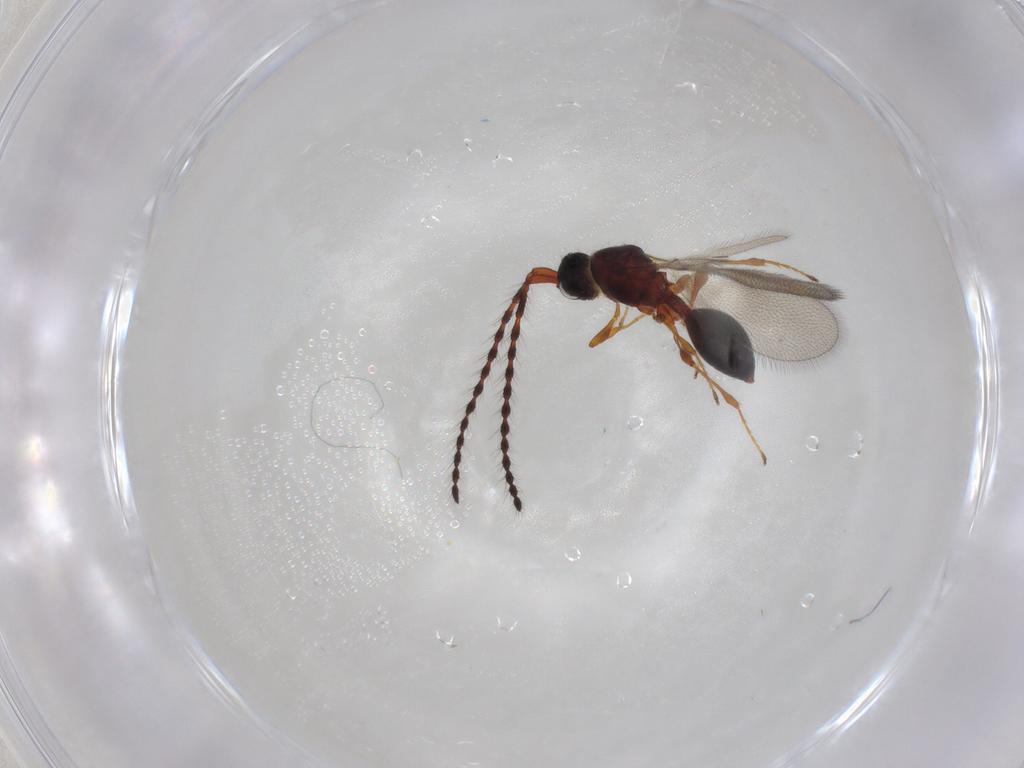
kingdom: Animalia
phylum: Arthropoda
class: Insecta
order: Hymenoptera
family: Diapriidae
